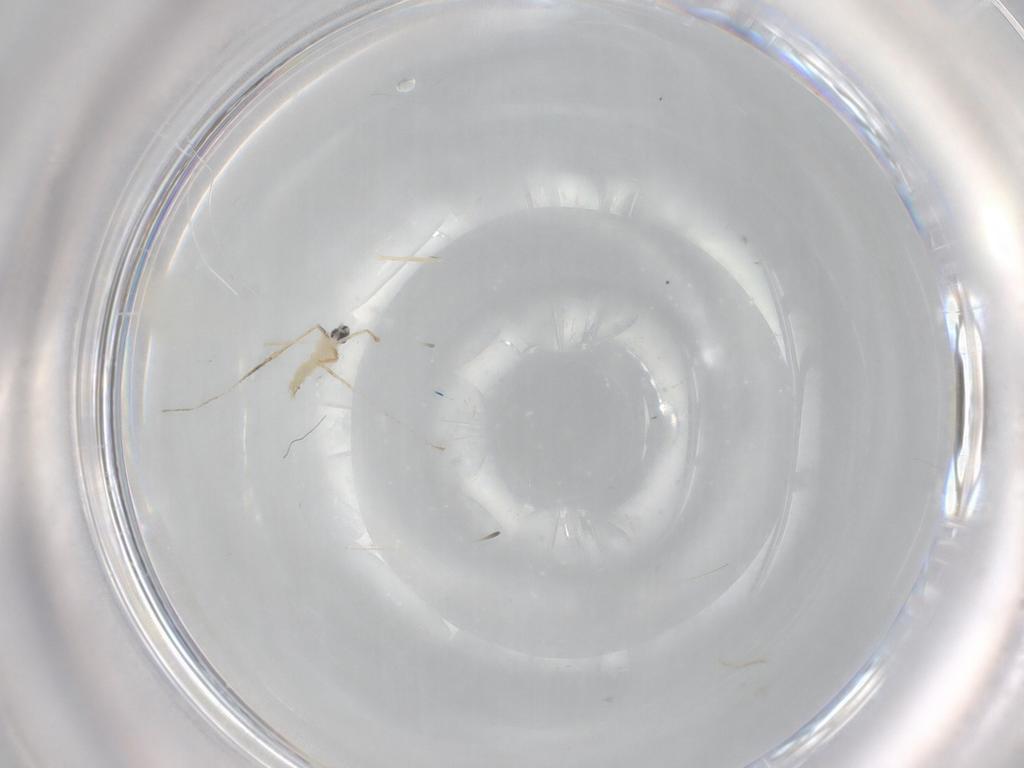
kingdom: Animalia
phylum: Arthropoda
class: Insecta
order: Diptera
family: Cecidomyiidae
